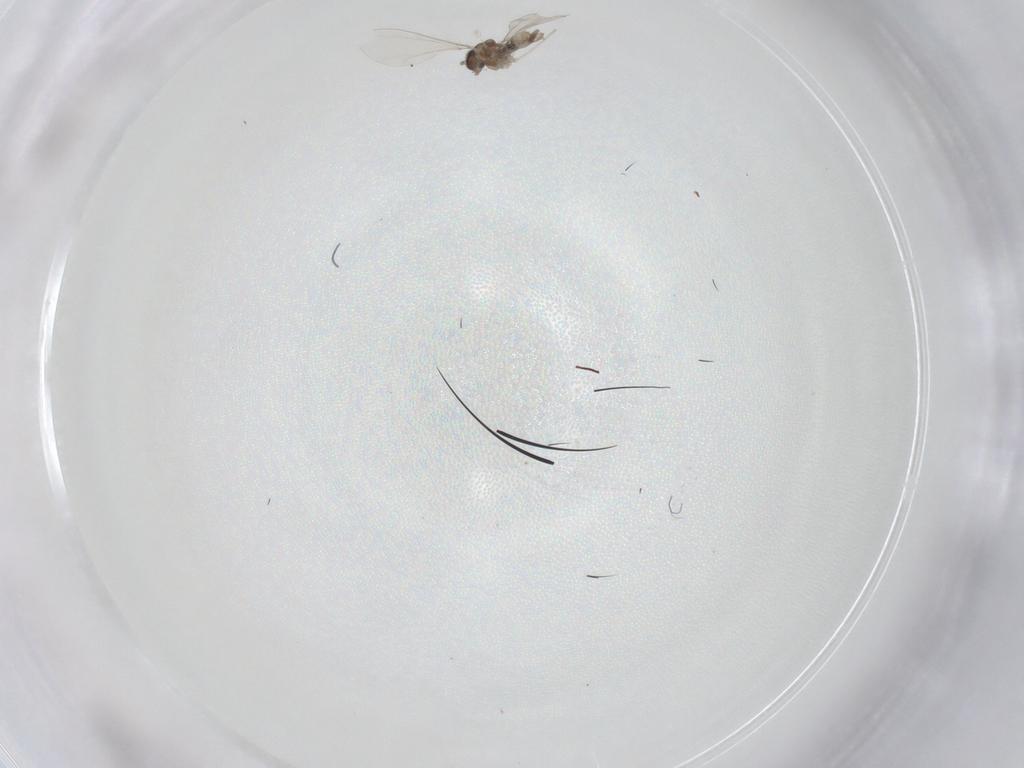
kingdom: Animalia
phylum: Arthropoda
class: Insecta
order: Diptera
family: Cecidomyiidae
